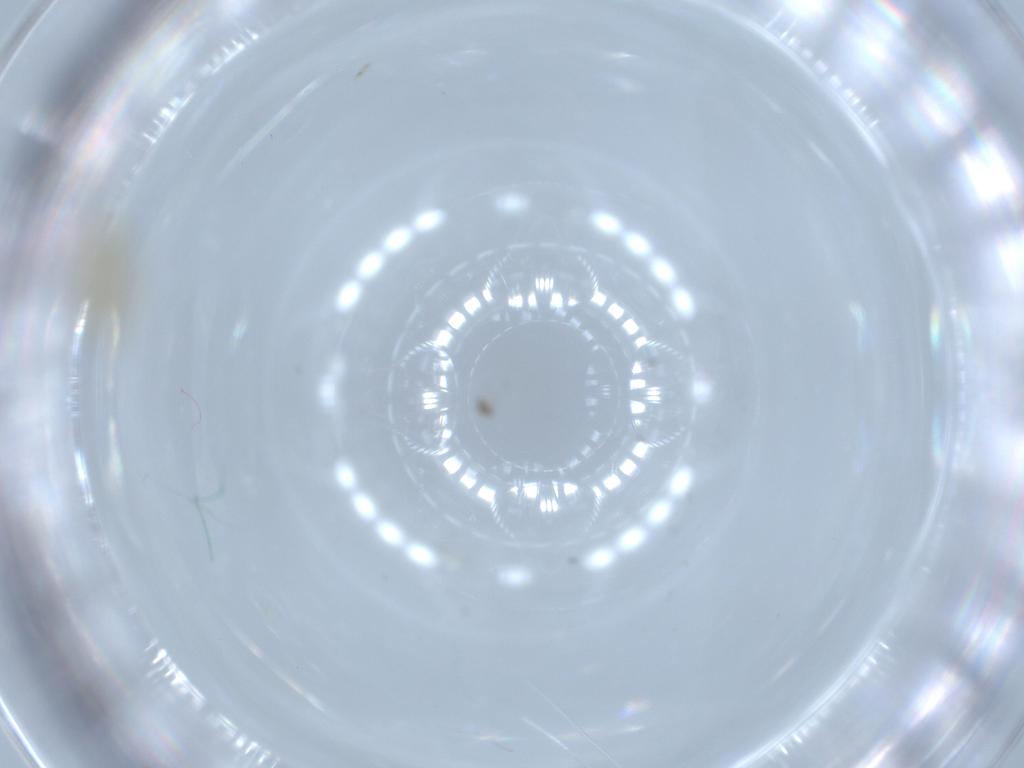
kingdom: Animalia
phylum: Arthropoda
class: Insecta
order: Hemiptera
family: Aleyrodidae
